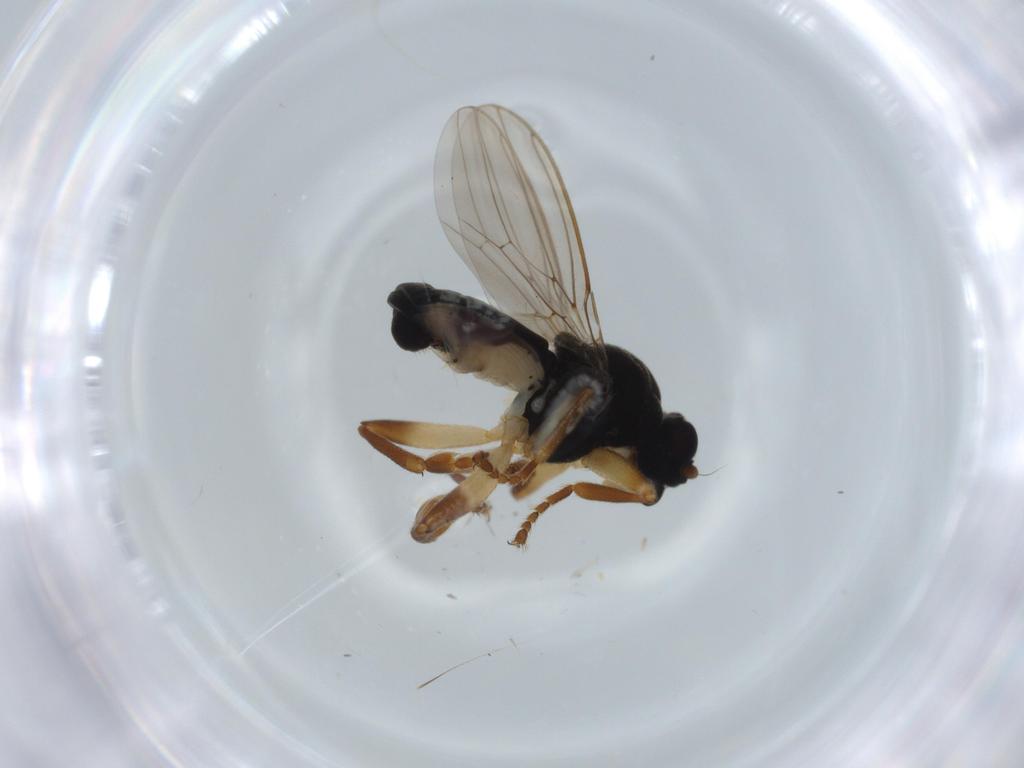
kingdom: Animalia
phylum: Arthropoda
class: Insecta
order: Diptera
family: Sphaeroceridae
